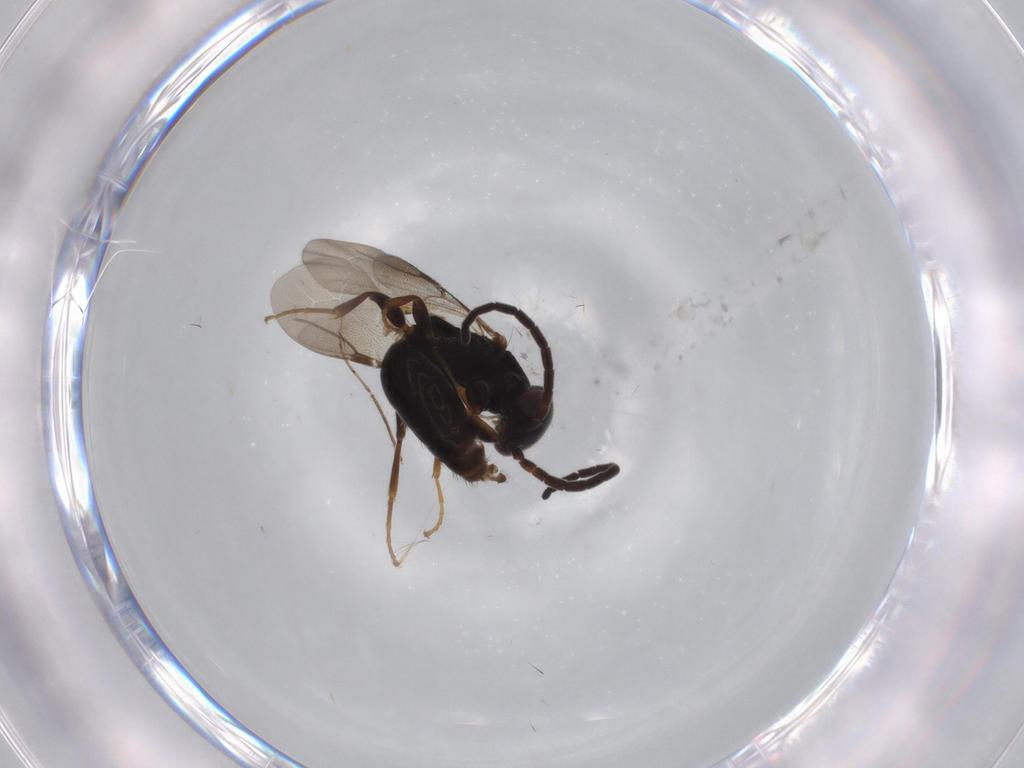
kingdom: Animalia
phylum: Arthropoda
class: Insecta
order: Hymenoptera
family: Bethylidae
